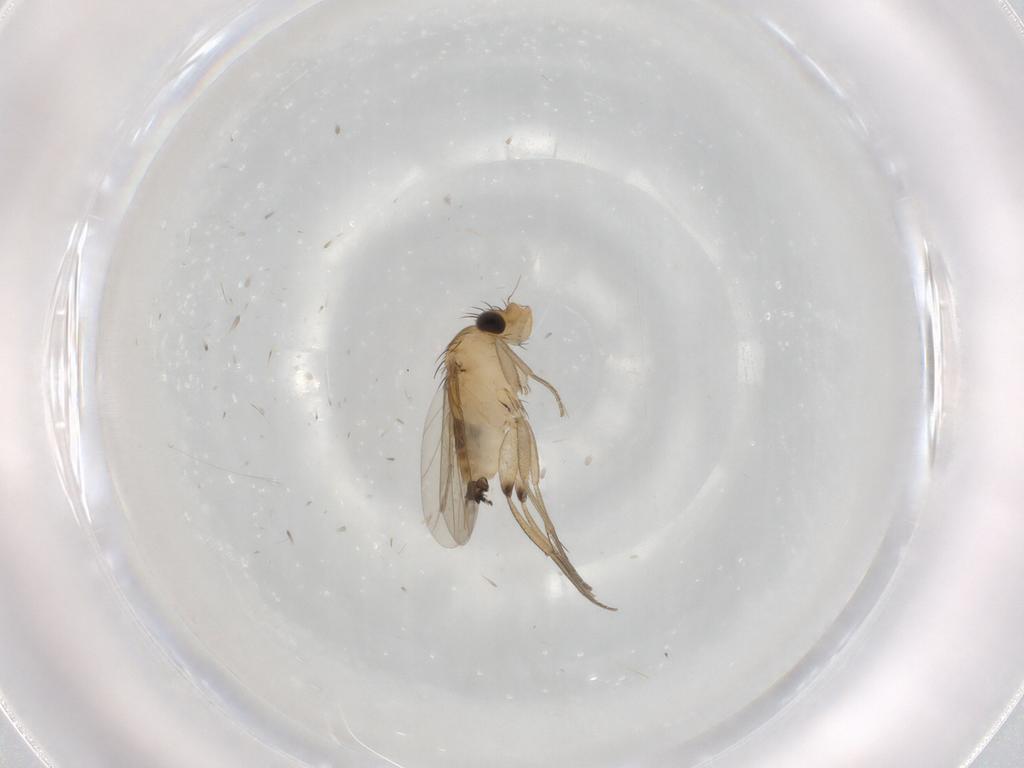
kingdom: Animalia
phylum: Arthropoda
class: Insecta
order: Diptera
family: Phoridae
